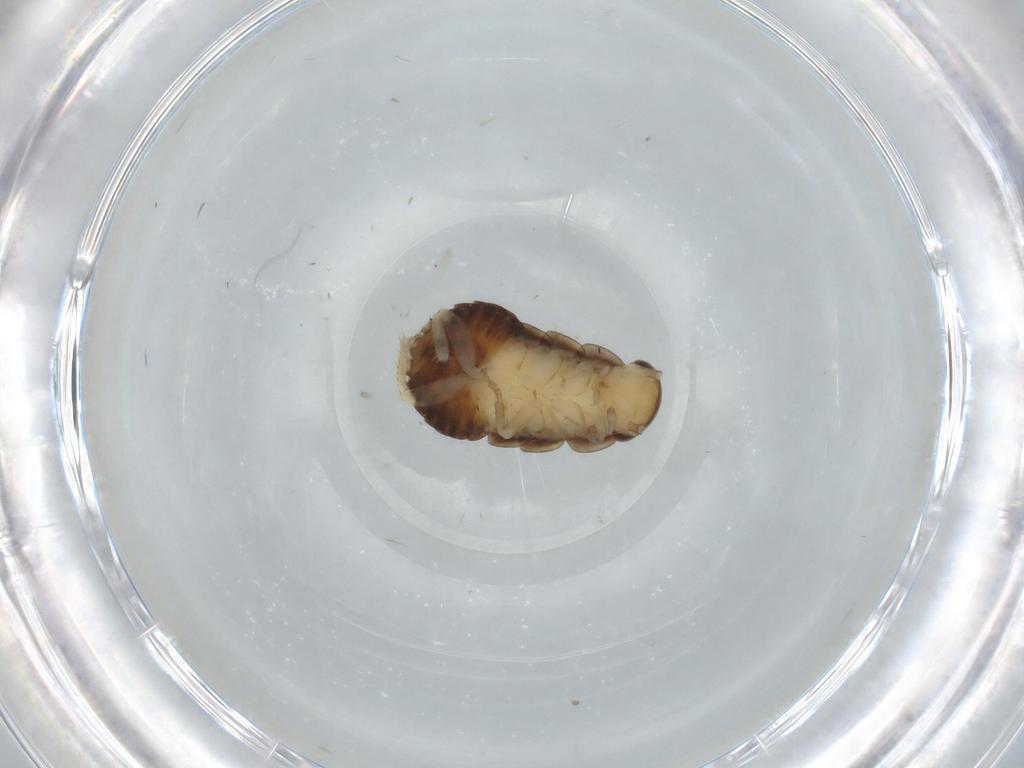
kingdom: Animalia
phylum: Arthropoda
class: Insecta
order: Blattodea
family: Ectobiidae
